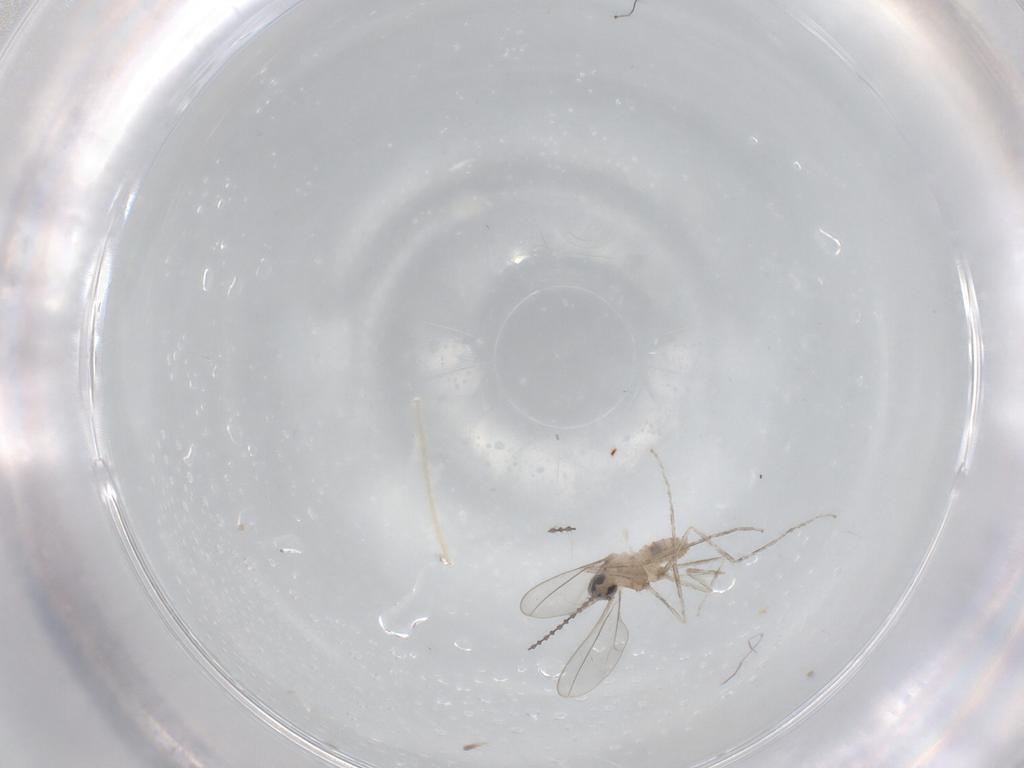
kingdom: Animalia
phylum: Arthropoda
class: Insecta
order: Diptera
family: Cecidomyiidae
